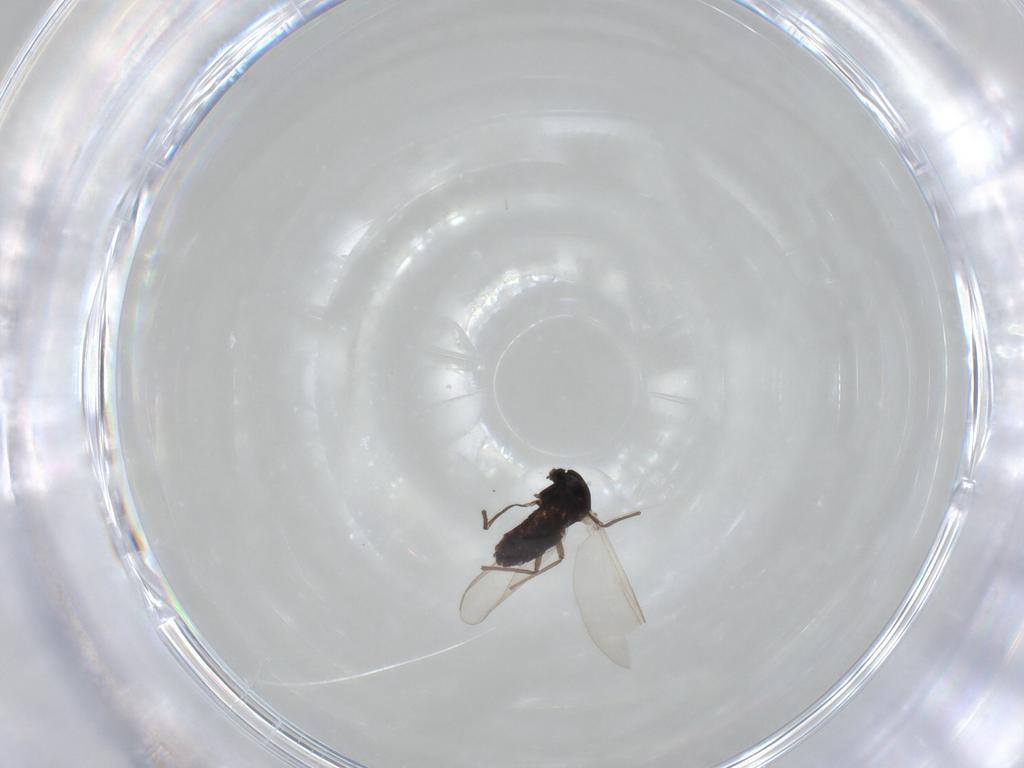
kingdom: Animalia
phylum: Arthropoda
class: Insecta
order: Diptera
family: Chironomidae
